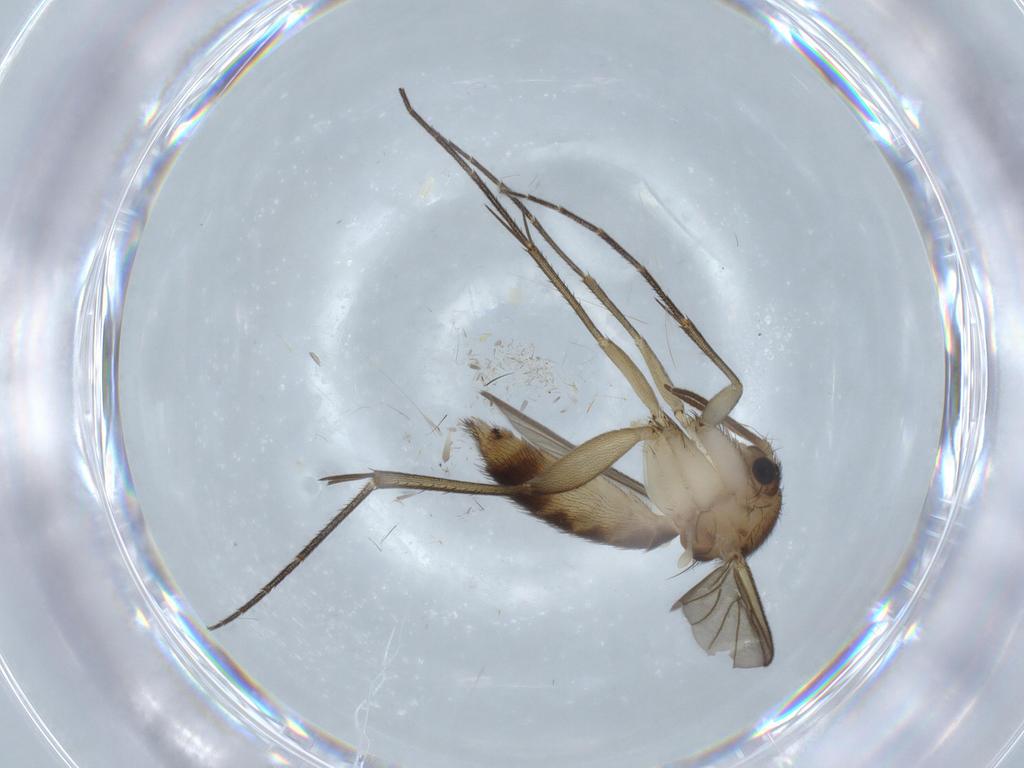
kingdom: Animalia
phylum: Arthropoda
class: Insecta
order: Diptera
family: Mycetophilidae
